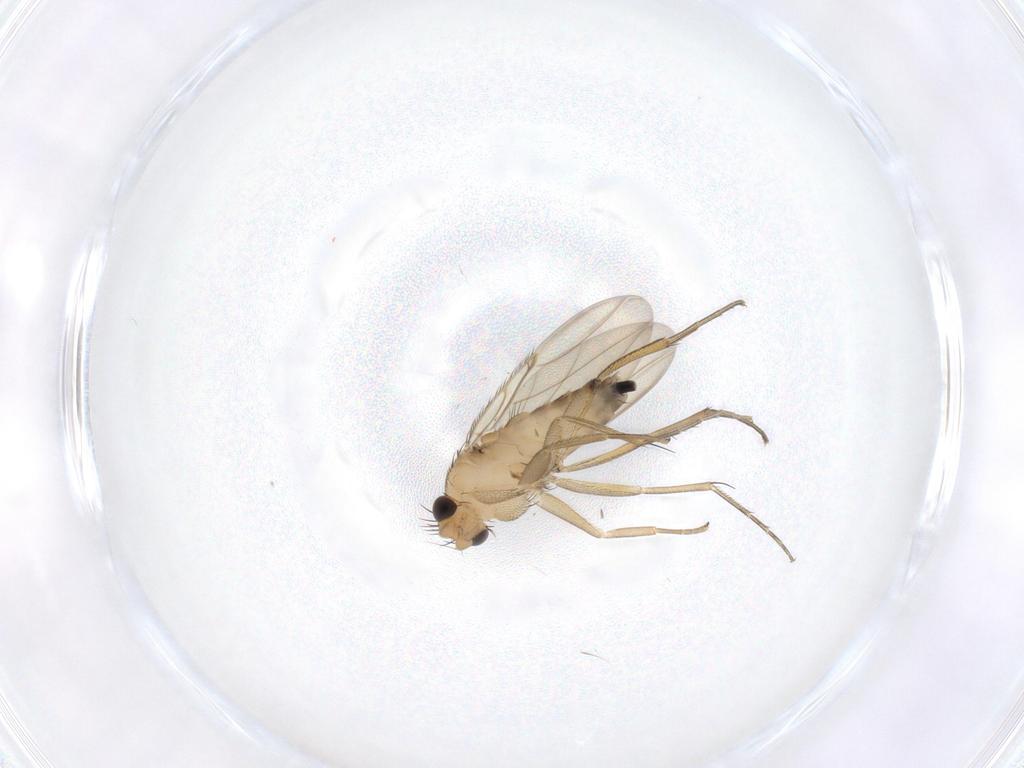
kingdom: Animalia
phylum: Arthropoda
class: Insecta
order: Diptera
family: Phoridae
